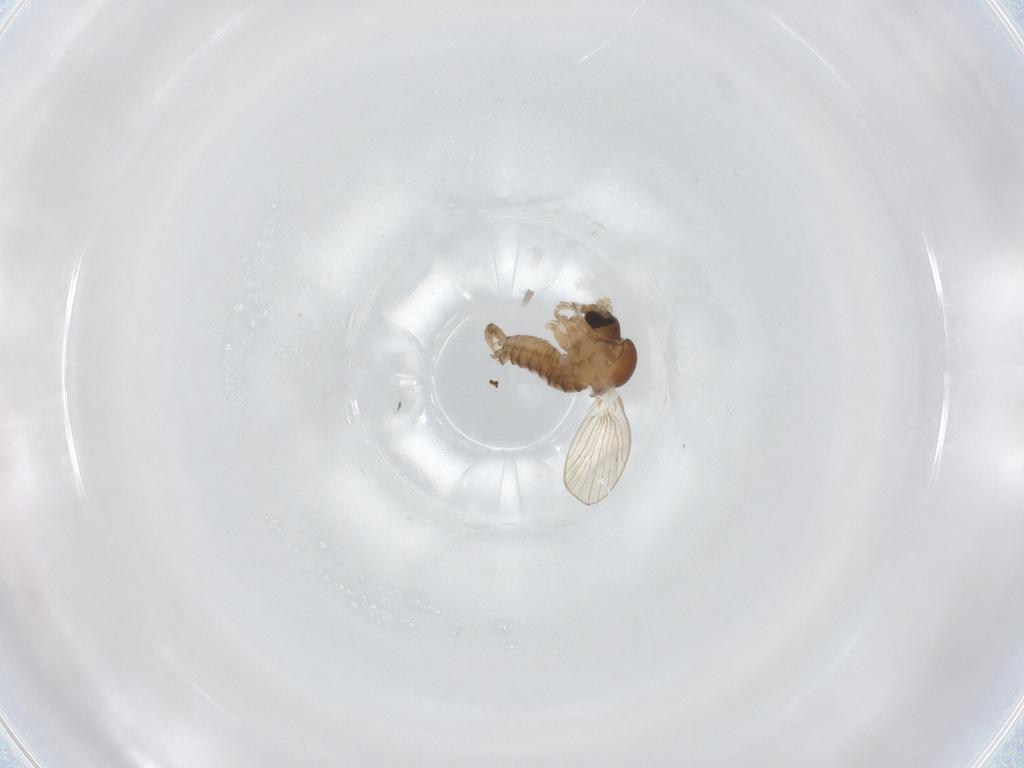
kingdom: Animalia
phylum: Arthropoda
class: Insecta
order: Diptera
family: Psychodidae
